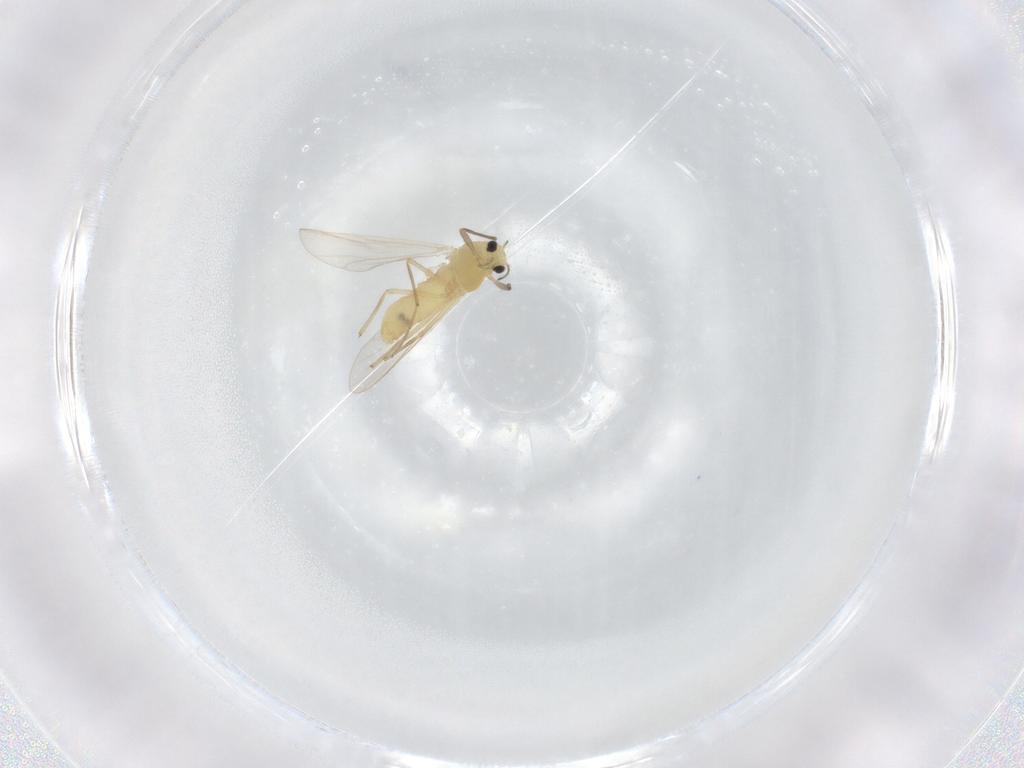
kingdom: Animalia
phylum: Arthropoda
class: Insecta
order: Diptera
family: Chironomidae
